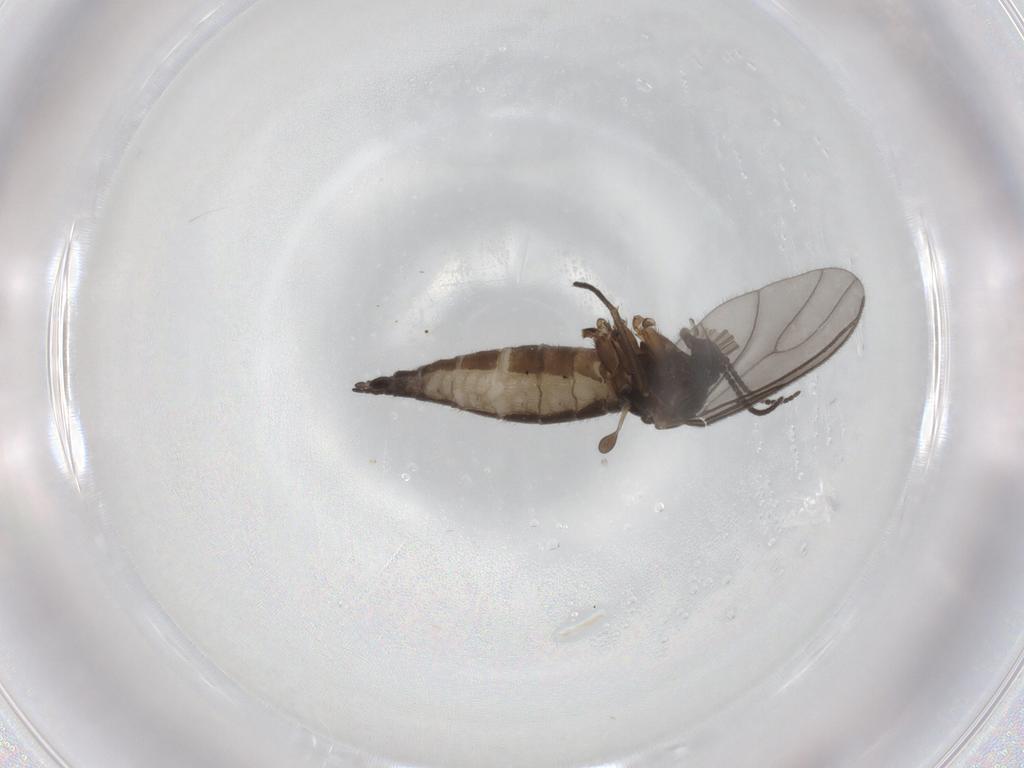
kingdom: Animalia
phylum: Arthropoda
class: Insecta
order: Diptera
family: Sciaridae
